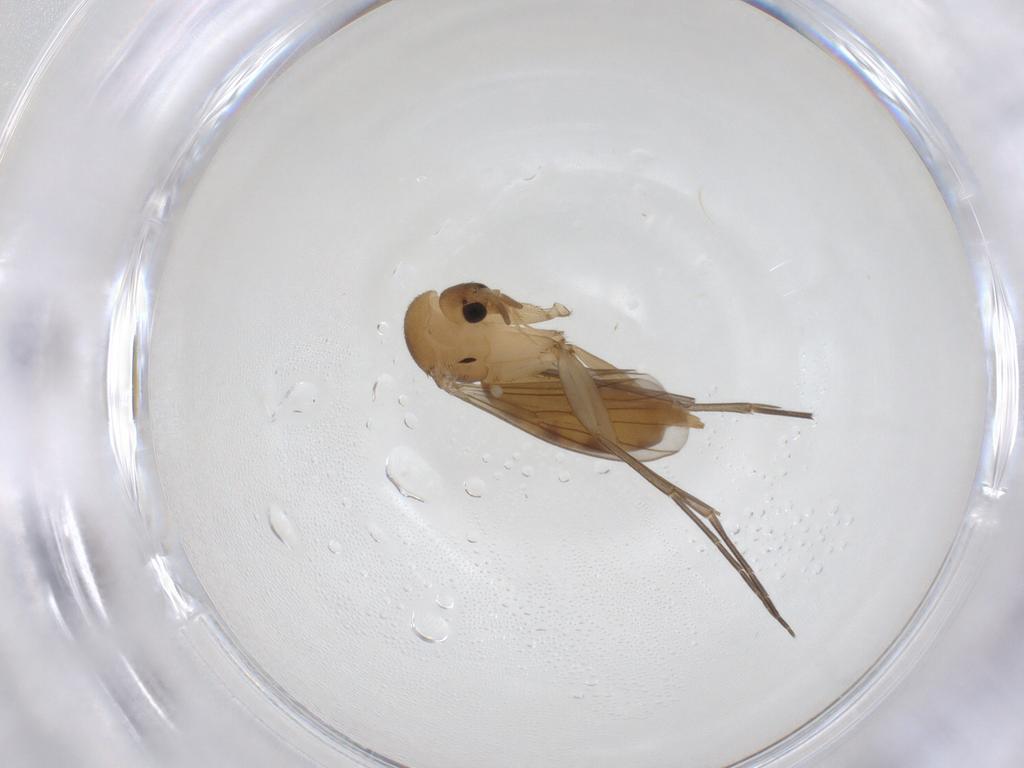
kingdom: Animalia
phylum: Arthropoda
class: Insecta
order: Diptera
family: Mycetophilidae
